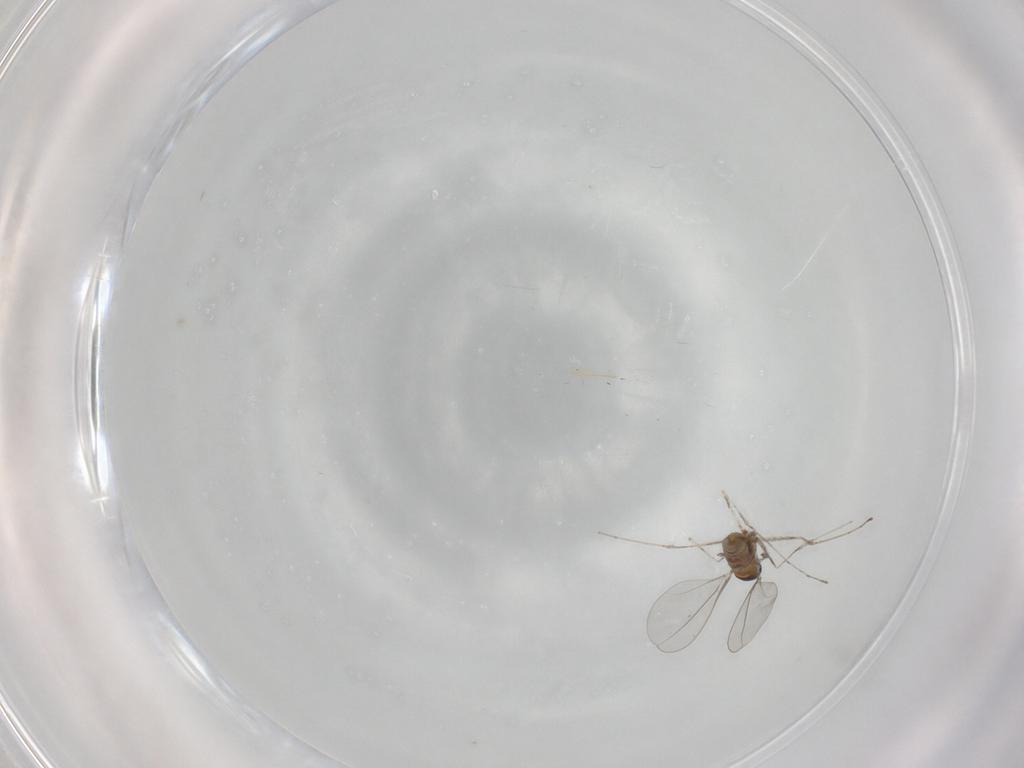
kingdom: Animalia
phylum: Arthropoda
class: Insecta
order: Diptera
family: Cecidomyiidae
